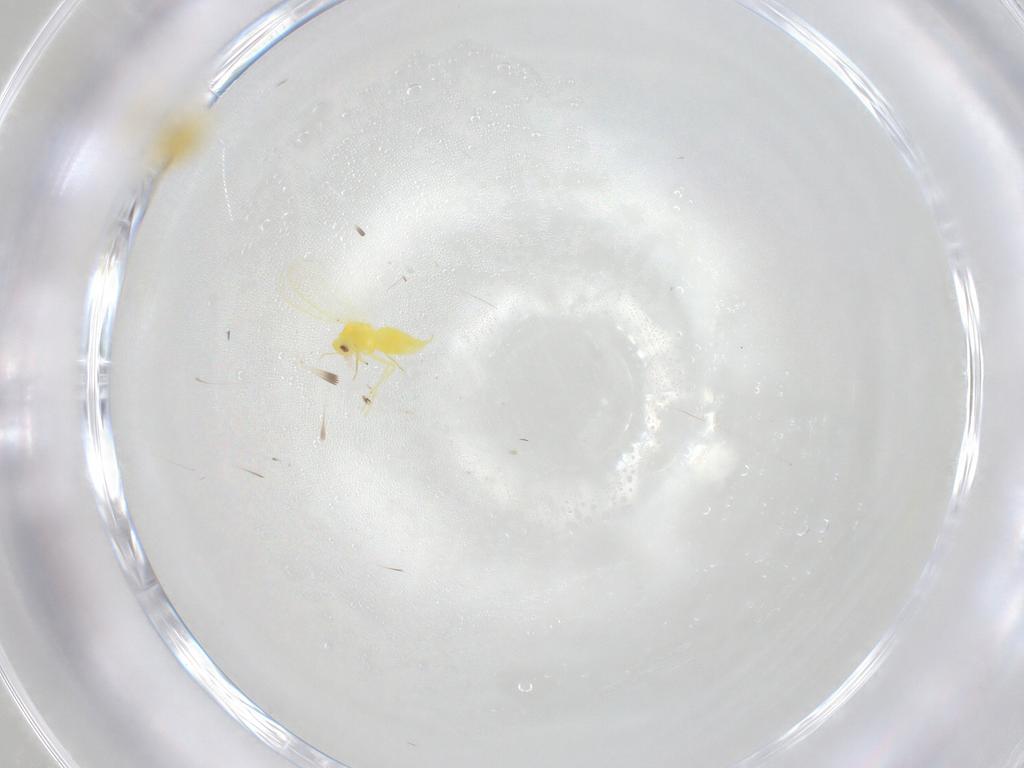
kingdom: Animalia
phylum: Arthropoda
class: Insecta
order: Hemiptera
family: Aleyrodidae
